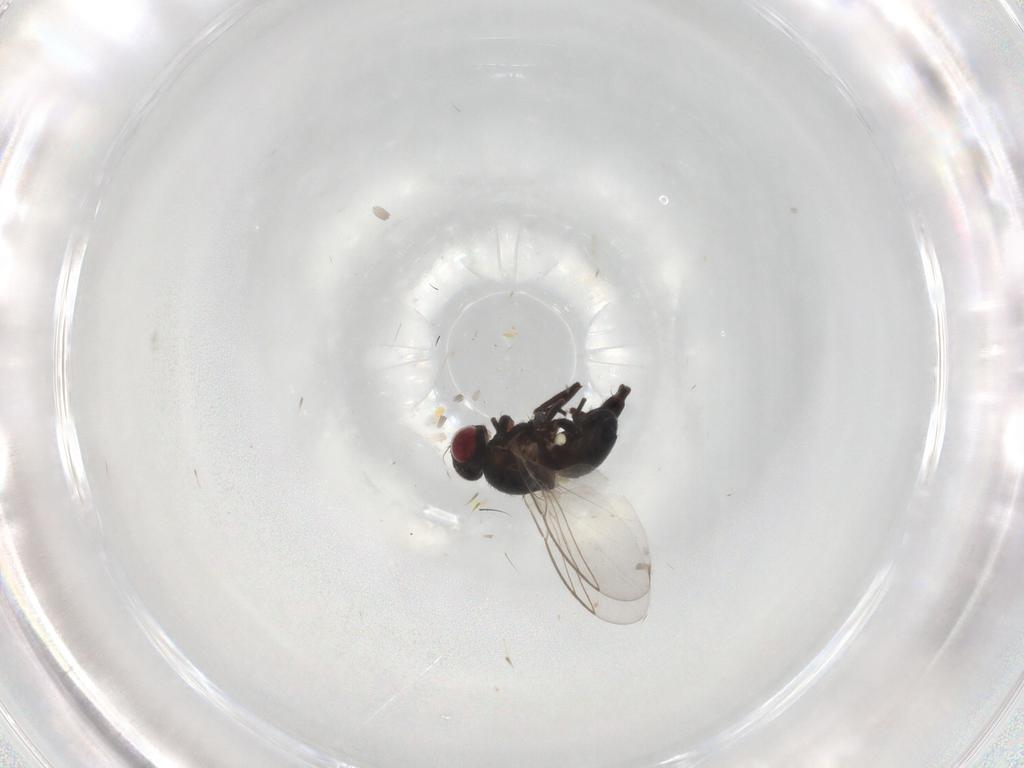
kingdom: Animalia
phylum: Arthropoda
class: Insecta
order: Diptera
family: Agromyzidae
